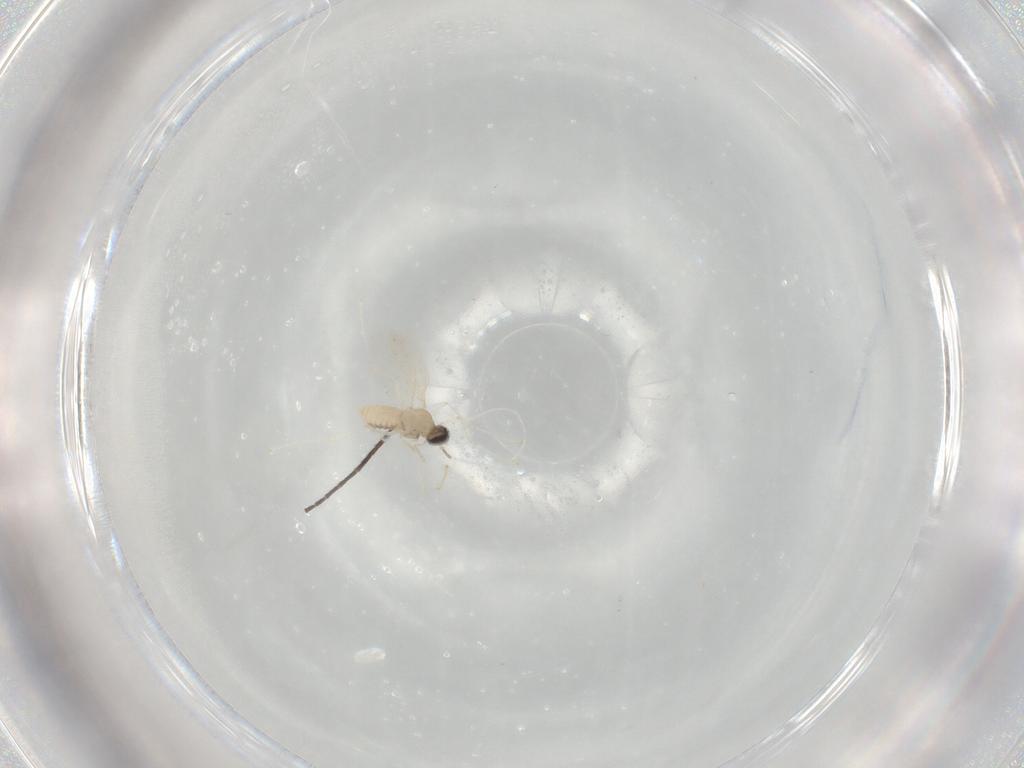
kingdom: Animalia
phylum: Arthropoda
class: Insecta
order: Diptera
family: Cecidomyiidae
